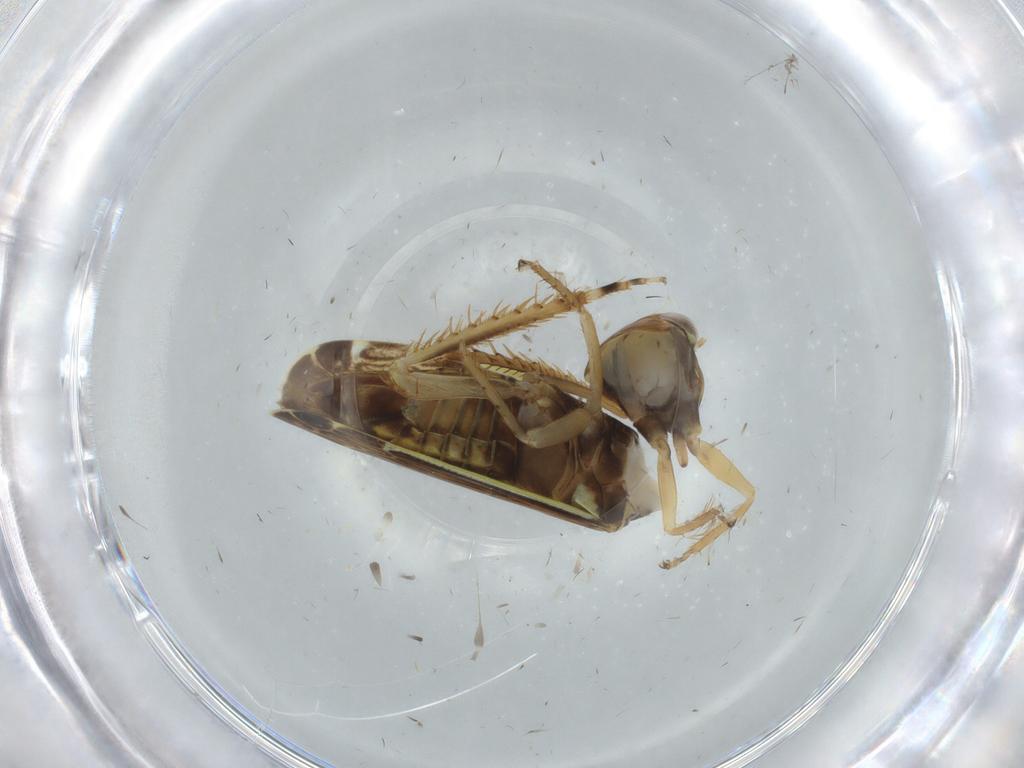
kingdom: Animalia
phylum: Arthropoda
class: Insecta
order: Hemiptera
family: Cicadellidae
